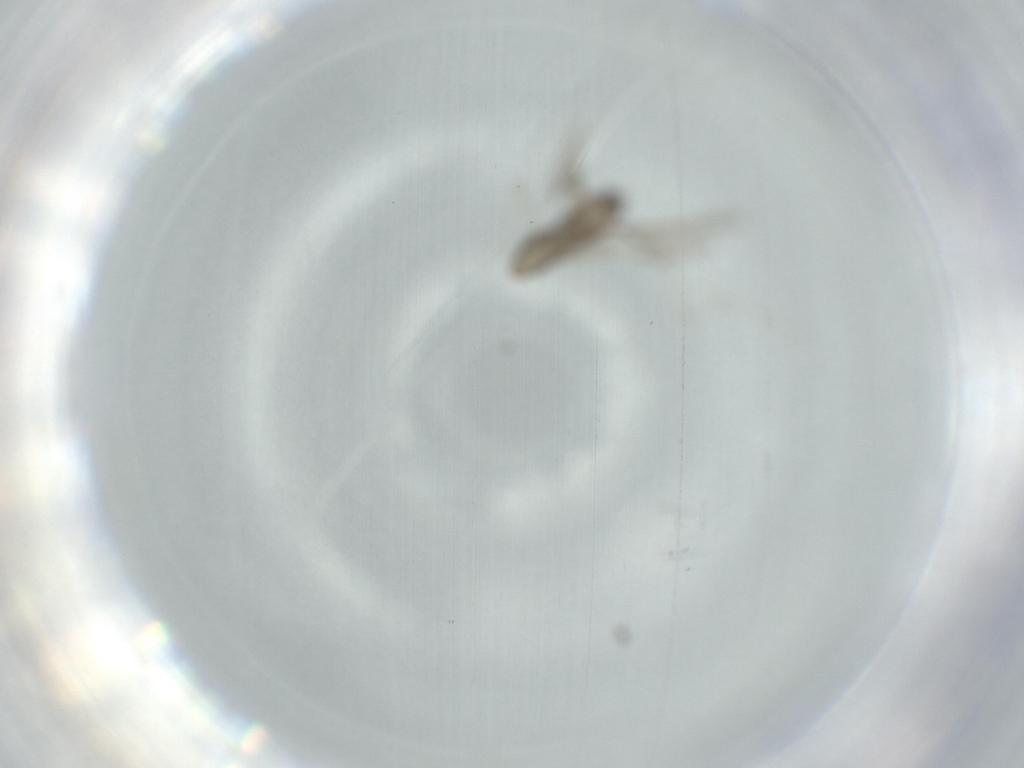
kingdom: Animalia
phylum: Arthropoda
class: Insecta
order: Diptera
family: Cecidomyiidae
